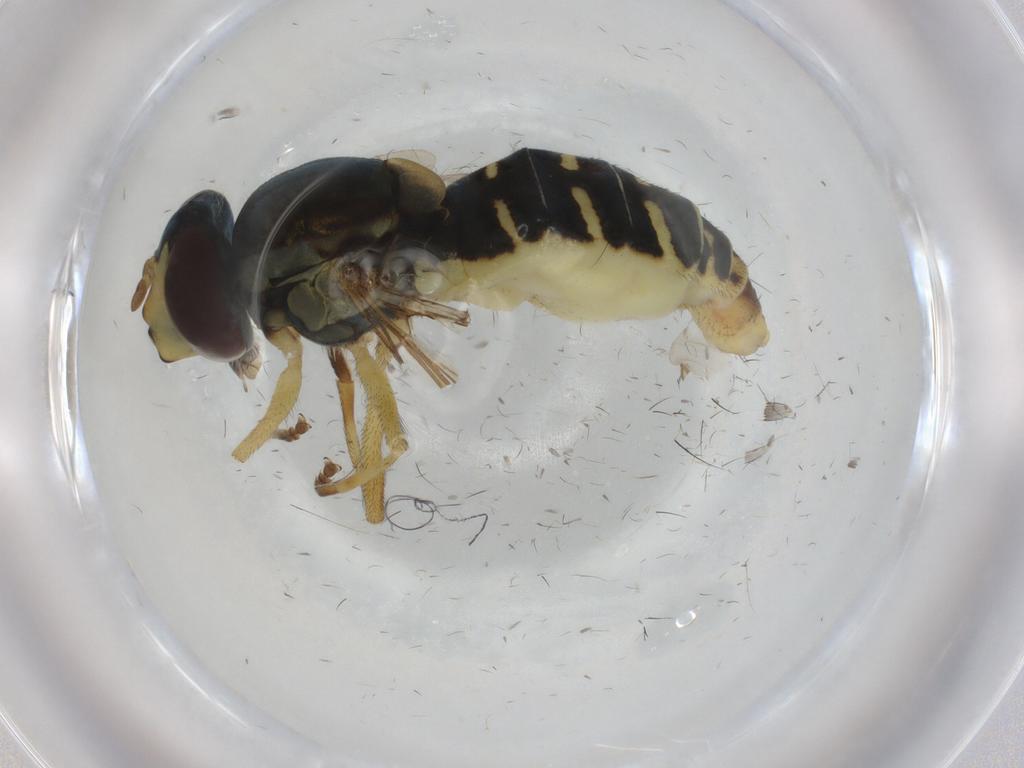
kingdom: Animalia
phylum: Arthropoda
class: Insecta
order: Diptera
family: Syrphidae
